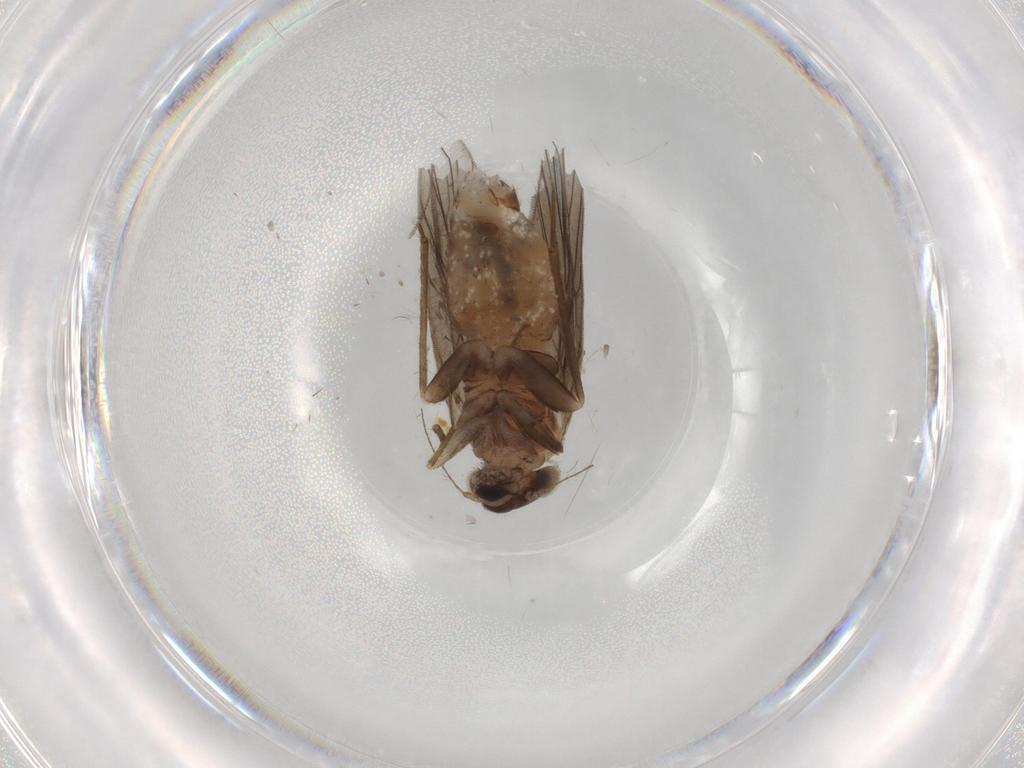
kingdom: Animalia
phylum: Arthropoda
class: Insecta
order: Psocodea
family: Lepidopsocidae
